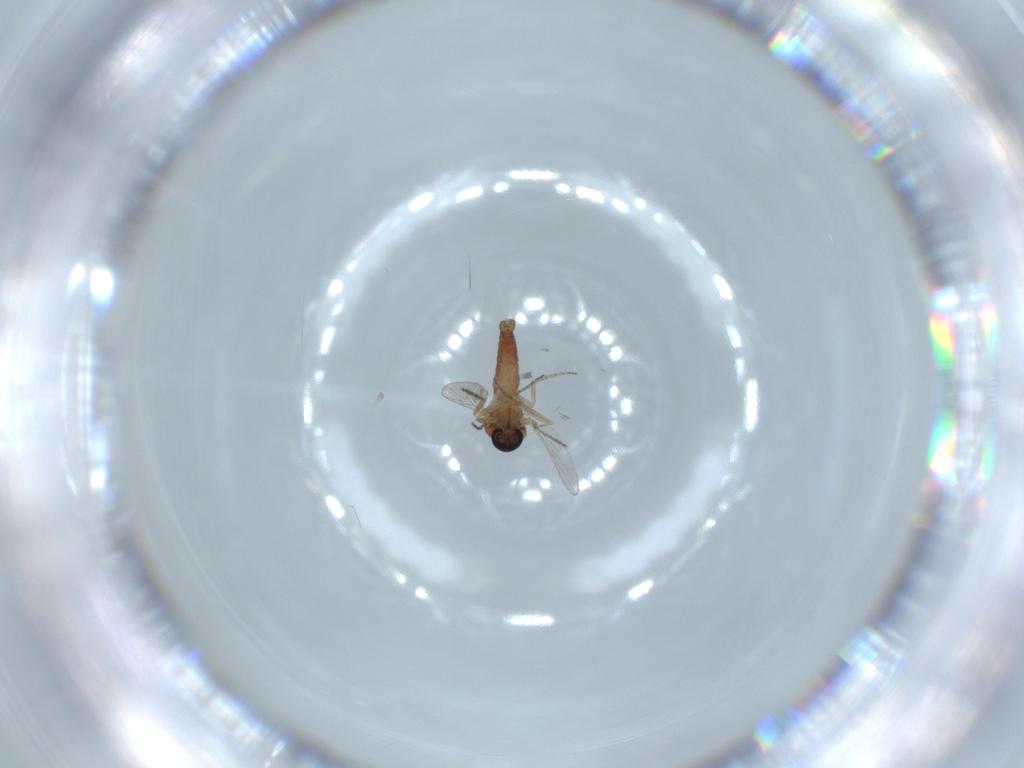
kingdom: Animalia
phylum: Arthropoda
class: Insecta
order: Diptera
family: Ceratopogonidae
